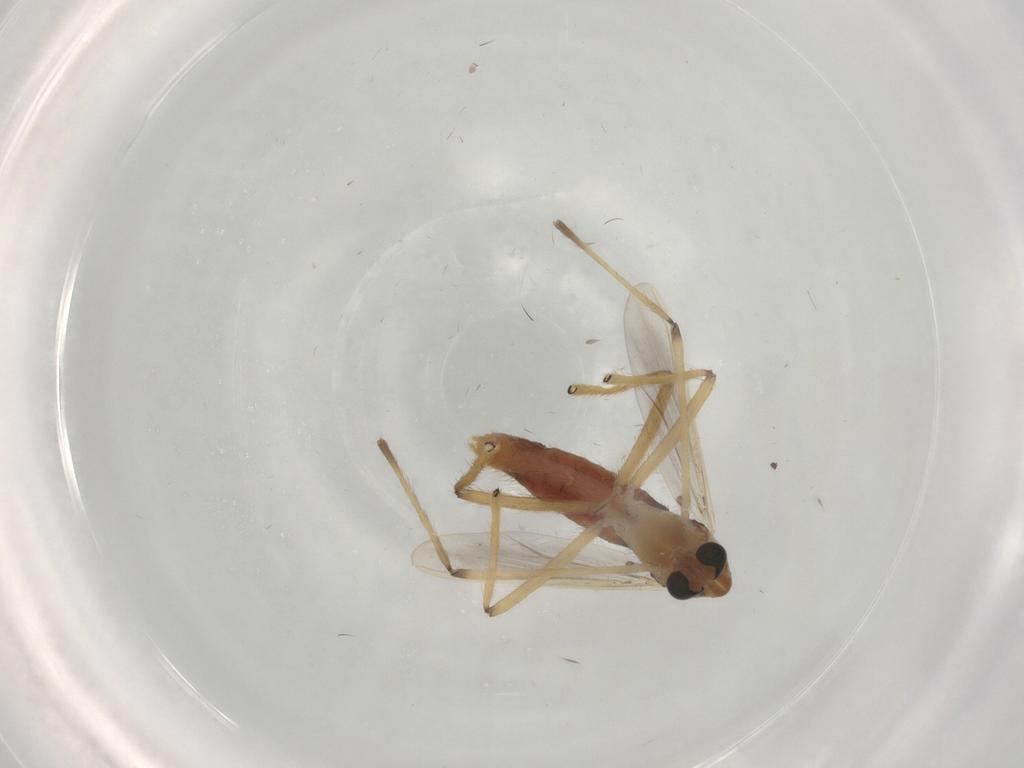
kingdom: Animalia
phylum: Arthropoda
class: Insecta
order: Diptera
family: Chironomidae
